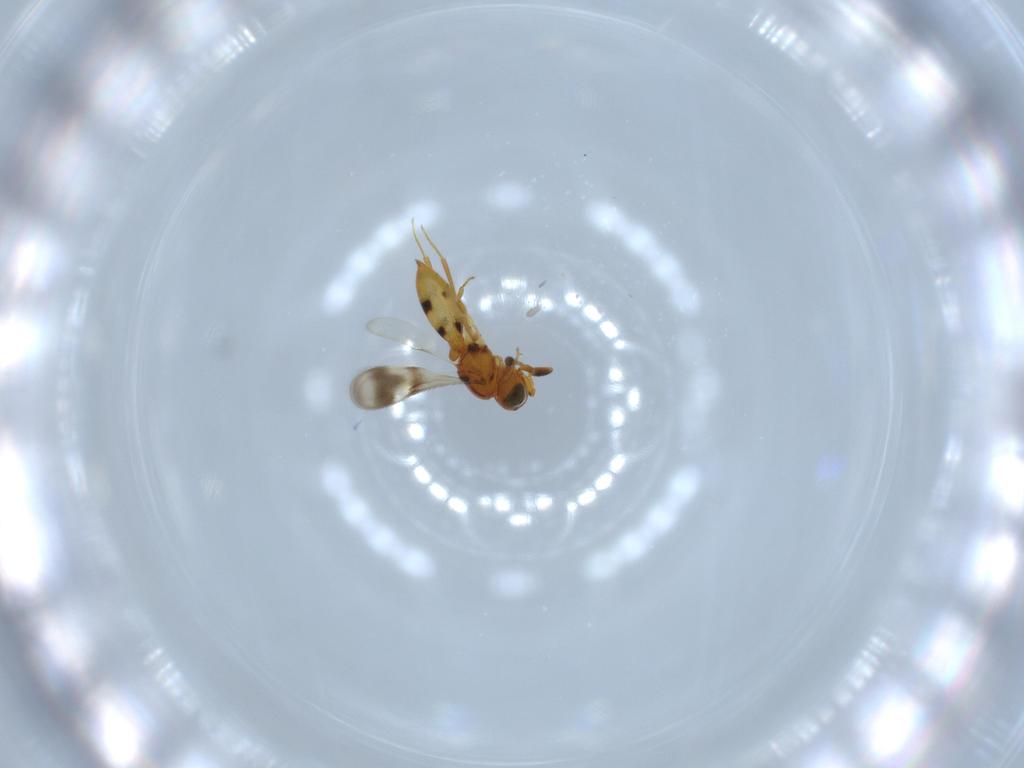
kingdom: Animalia
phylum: Arthropoda
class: Insecta
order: Hymenoptera
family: Scelionidae
